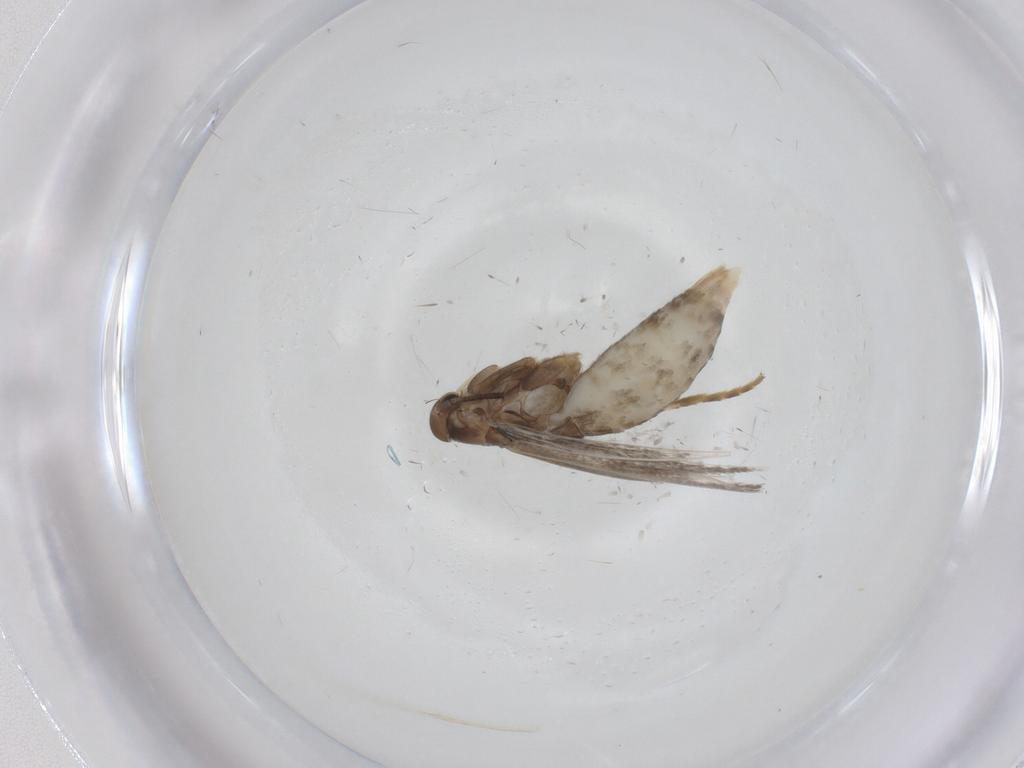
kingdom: Animalia
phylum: Arthropoda
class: Insecta
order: Lepidoptera
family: Elachistidae
